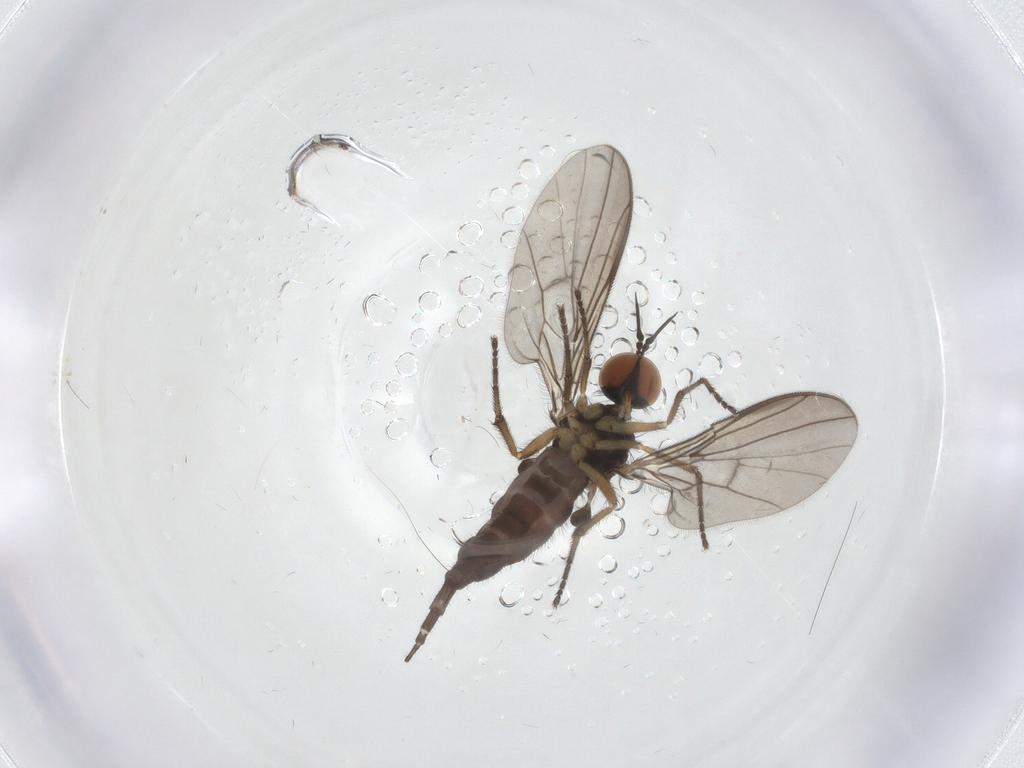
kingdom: Animalia
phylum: Arthropoda
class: Insecta
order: Diptera
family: Empididae
